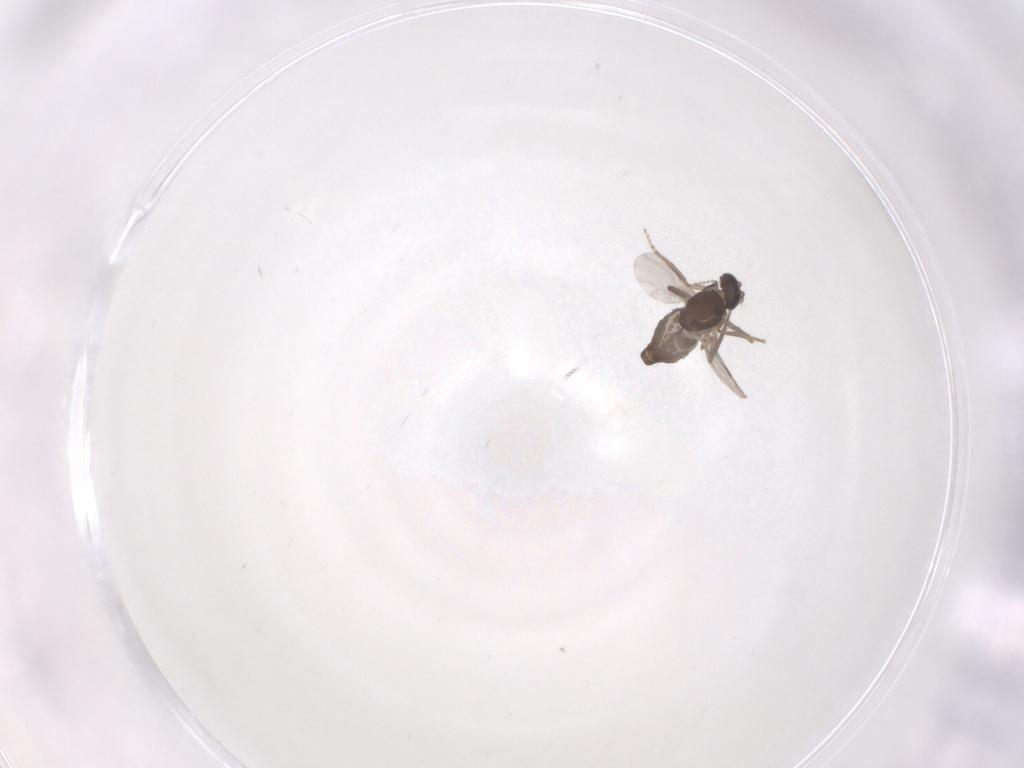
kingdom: Animalia
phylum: Arthropoda
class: Insecta
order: Diptera
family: Ceratopogonidae
